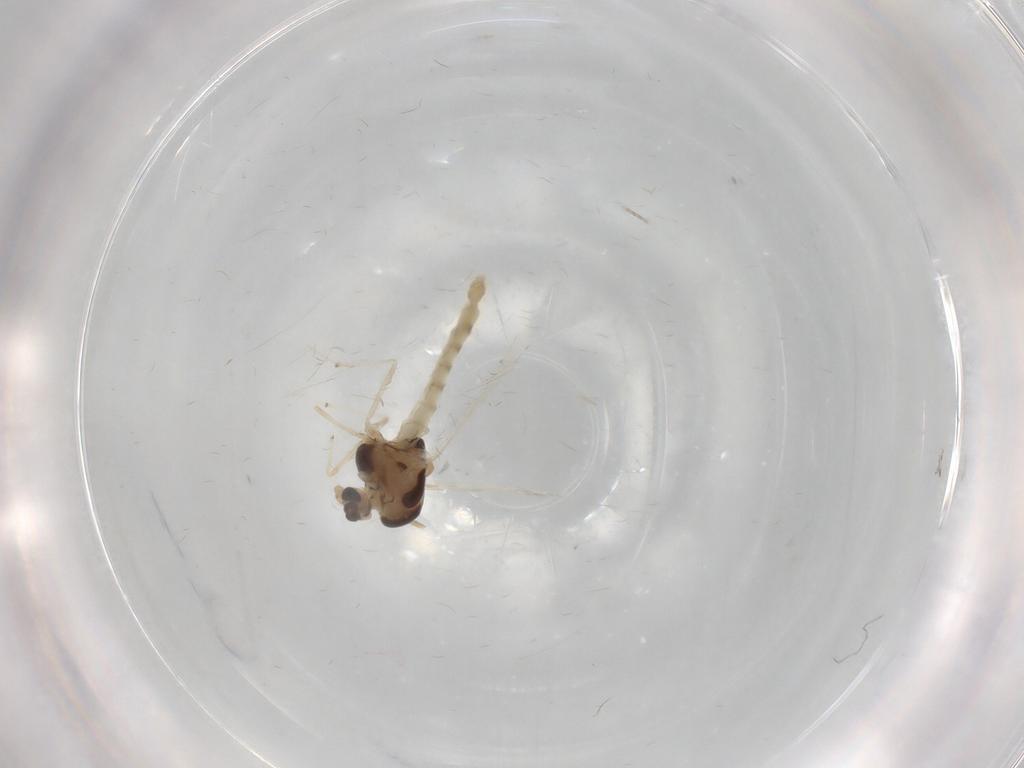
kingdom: Animalia
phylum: Arthropoda
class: Insecta
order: Diptera
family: Chironomidae
